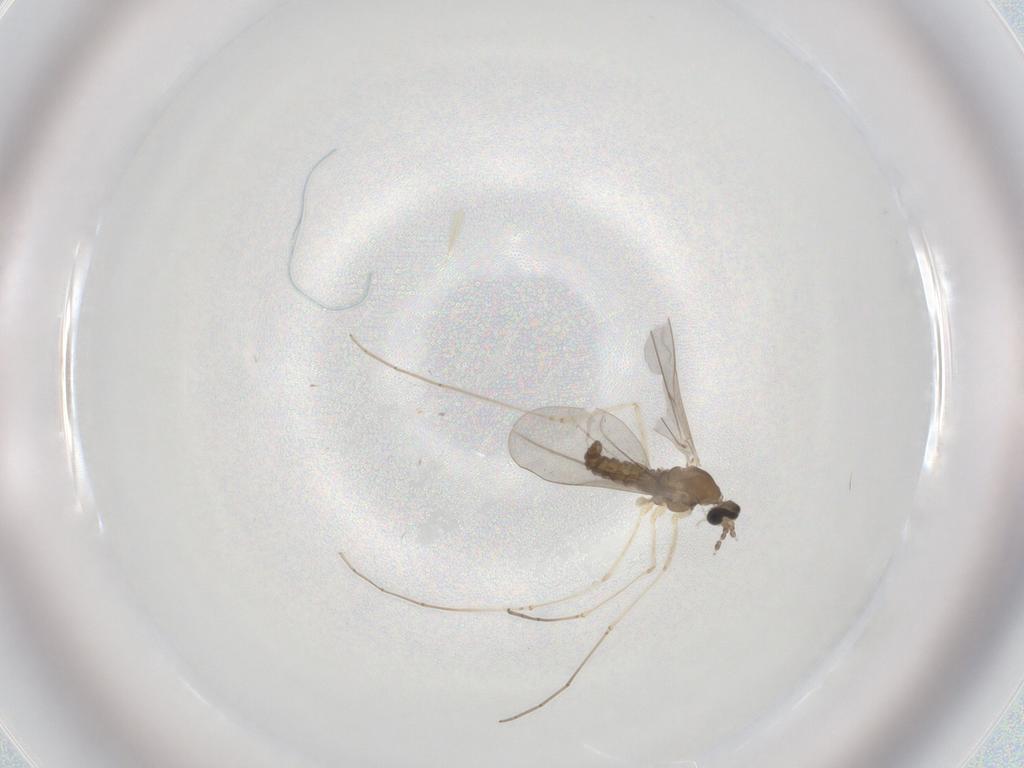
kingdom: Animalia
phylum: Arthropoda
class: Insecta
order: Diptera
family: Cecidomyiidae
